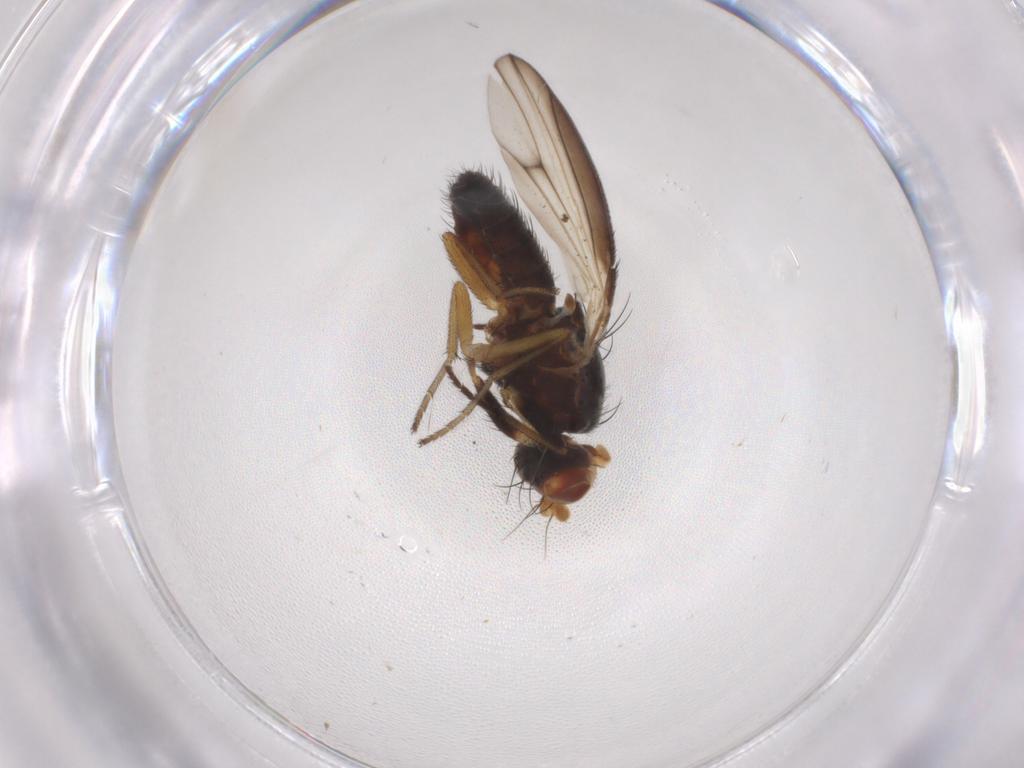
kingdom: Animalia
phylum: Arthropoda
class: Insecta
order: Diptera
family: Heleomyzidae
